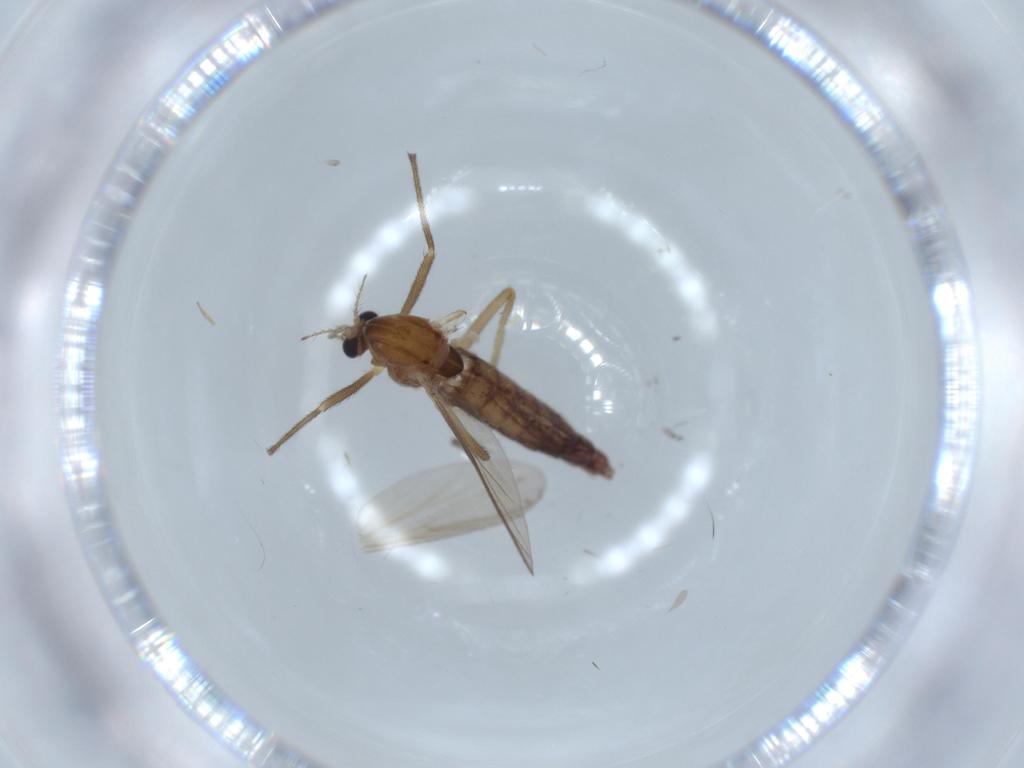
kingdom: Animalia
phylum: Arthropoda
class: Insecta
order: Diptera
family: Chironomidae
